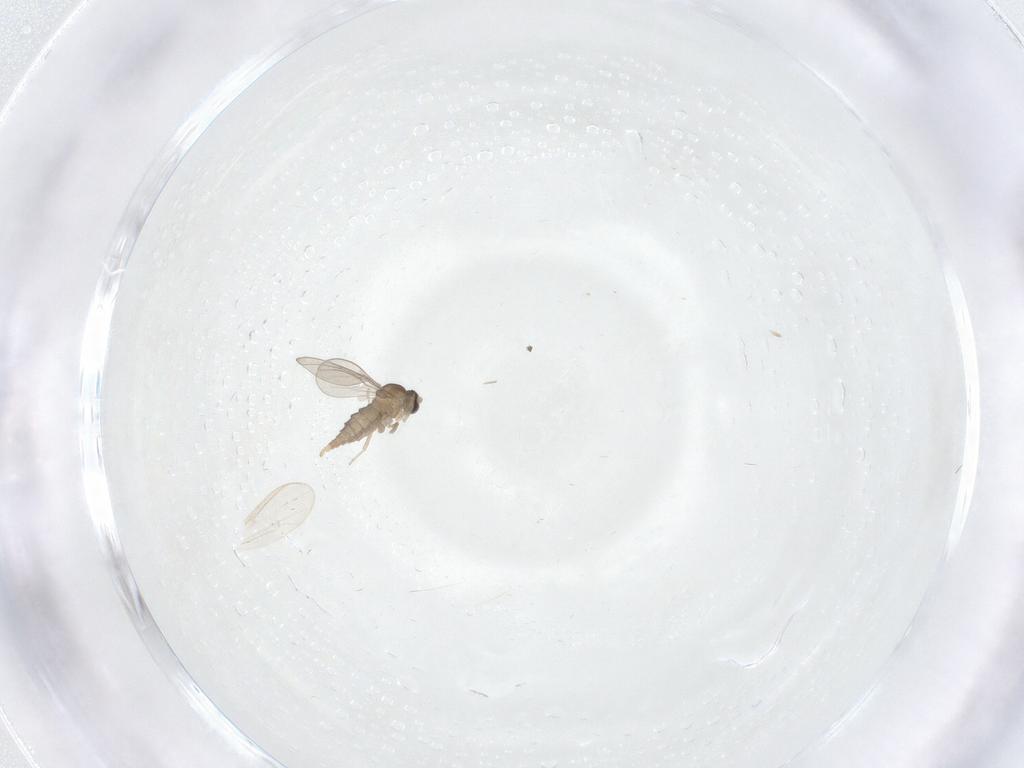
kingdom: Animalia
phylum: Arthropoda
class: Insecta
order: Diptera
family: Cecidomyiidae
